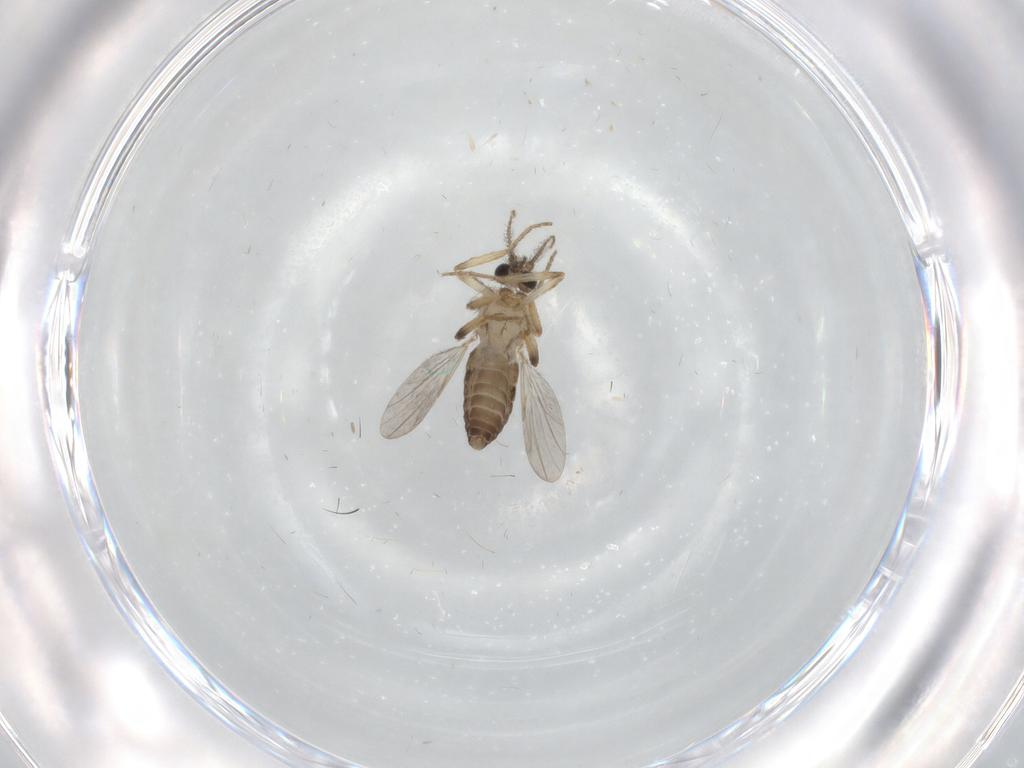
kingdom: Animalia
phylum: Arthropoda
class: Insecta
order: Diptera
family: Ceratopogonidae
